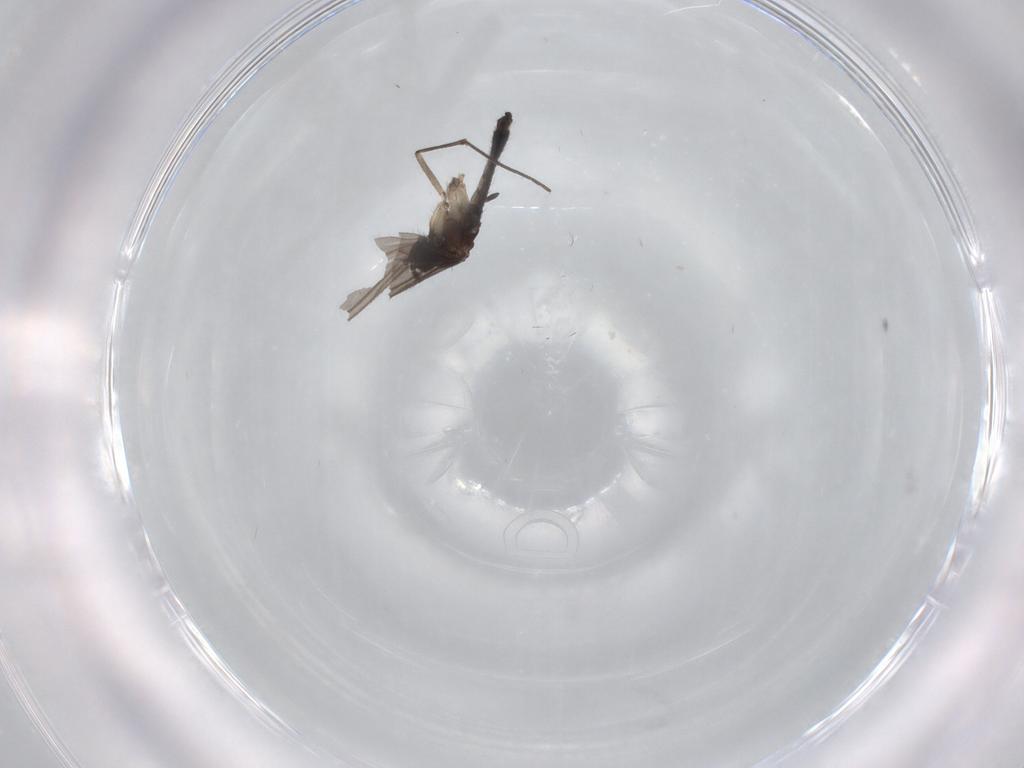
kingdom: Animalia
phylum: Arthropoda
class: Insecta
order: Diptera
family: Sciaridae
